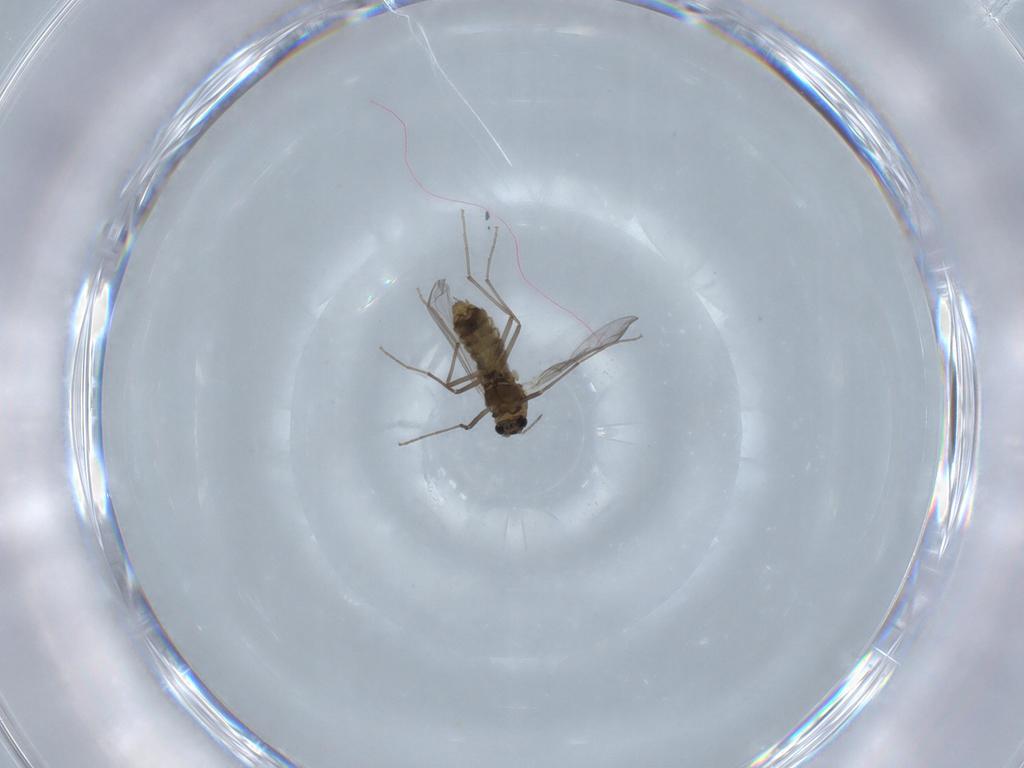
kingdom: Animalia
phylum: Arthropoda
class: Insecta
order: Diptera
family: Chironomidae
